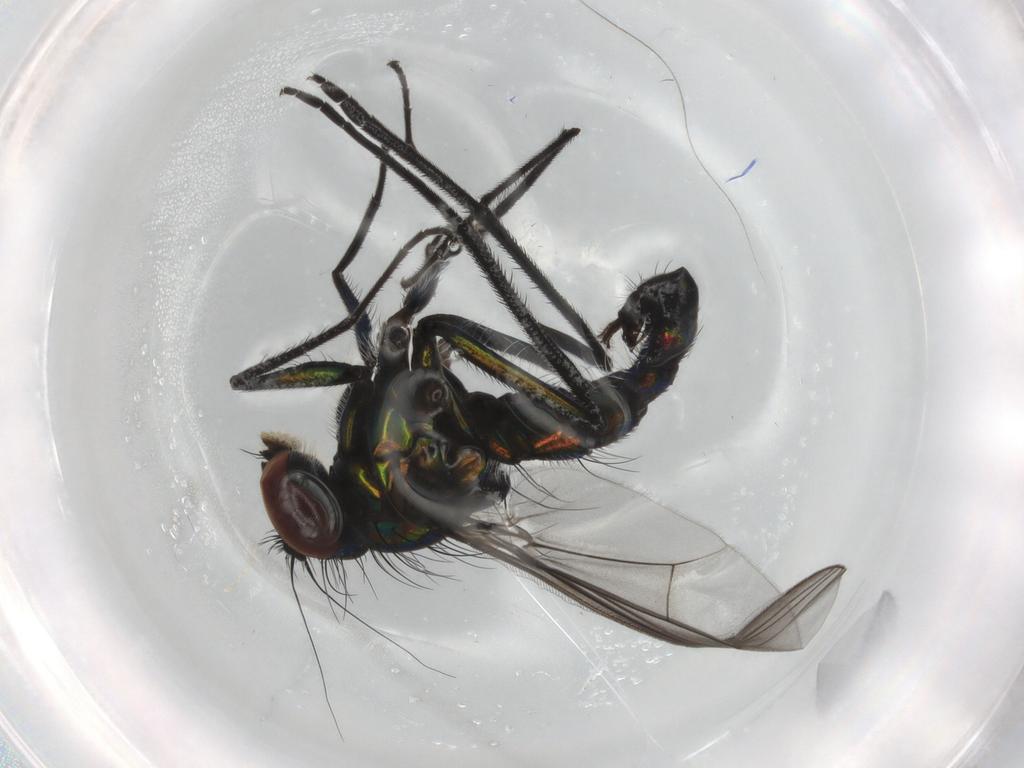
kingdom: Animalia
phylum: Arthropoda
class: Insecta
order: Diptera
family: Dolichopodidae
